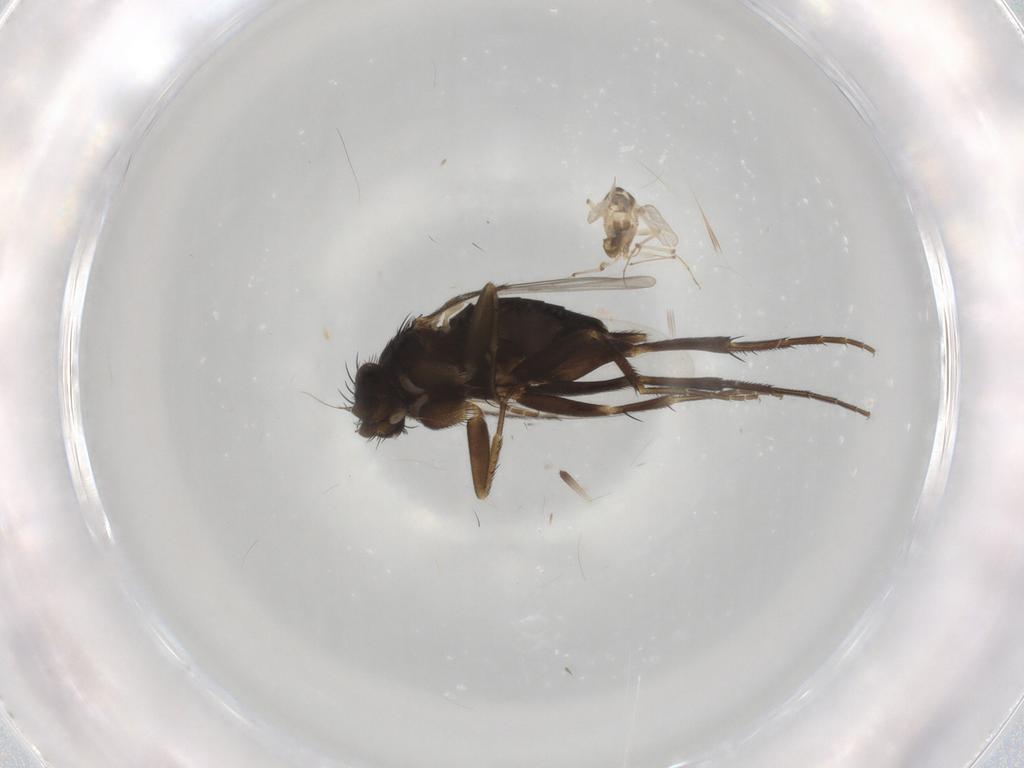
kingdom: Animalia
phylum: Arthropoda
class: Insecta
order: Diptera
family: Phoridae
